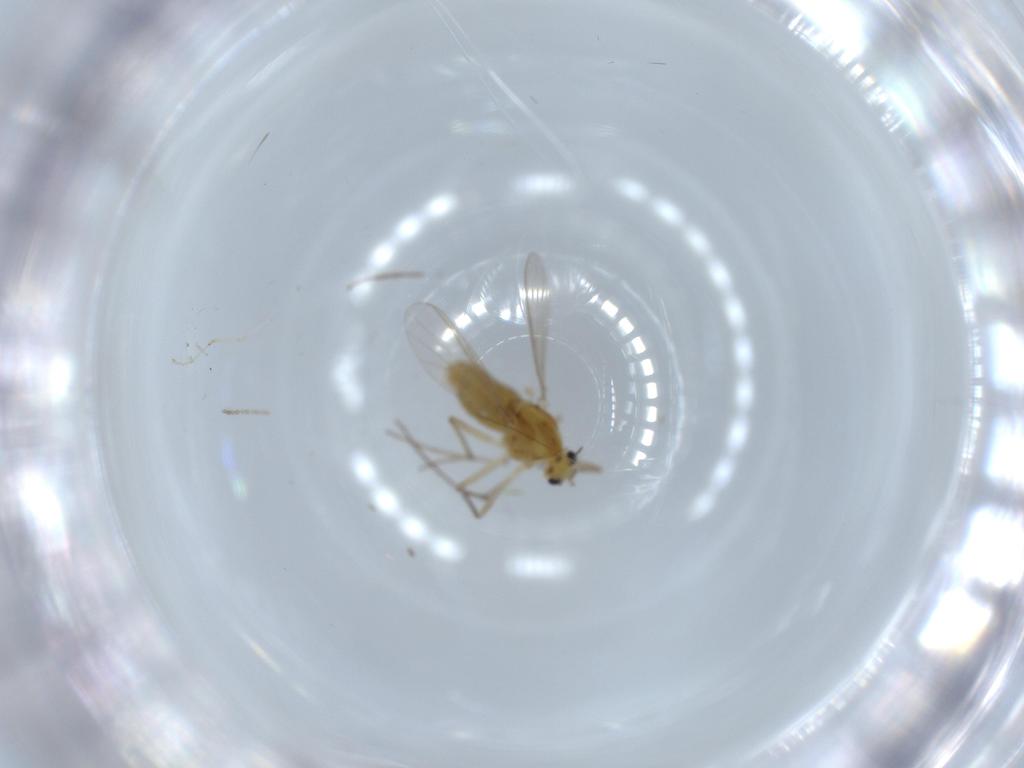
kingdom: Animalia
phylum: Arthropoda
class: Insecta
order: Diptera
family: Chironomidae
